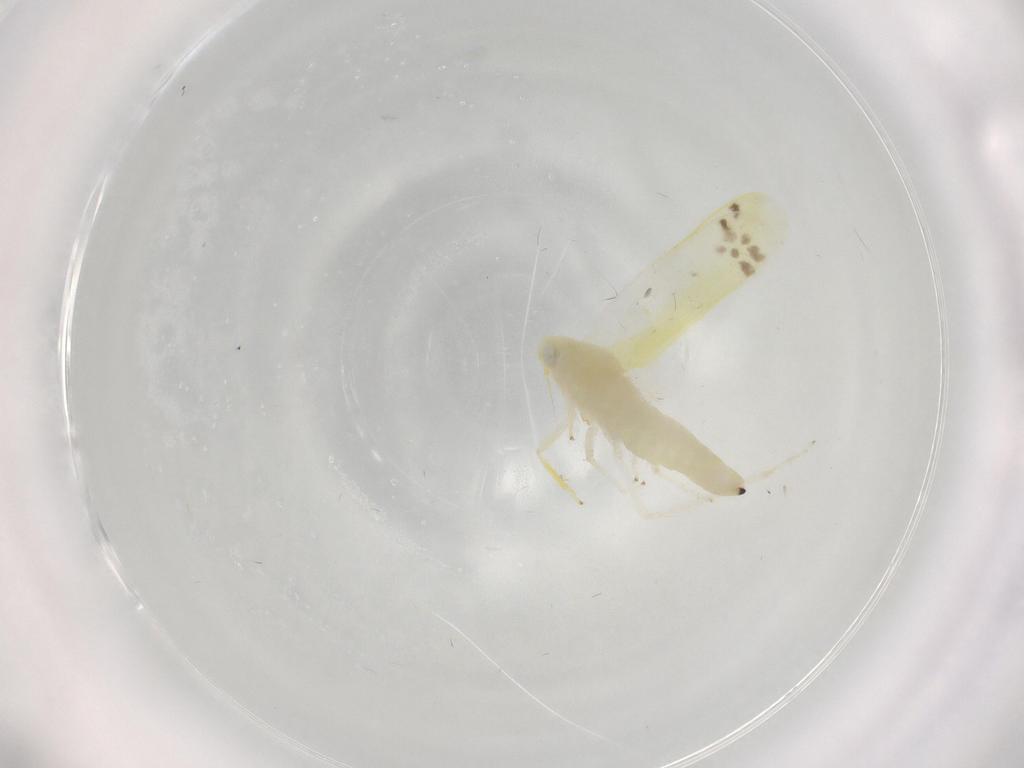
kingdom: Animalia
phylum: Arthropoda
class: Insecta
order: Hemiptera
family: Cicadellidae
